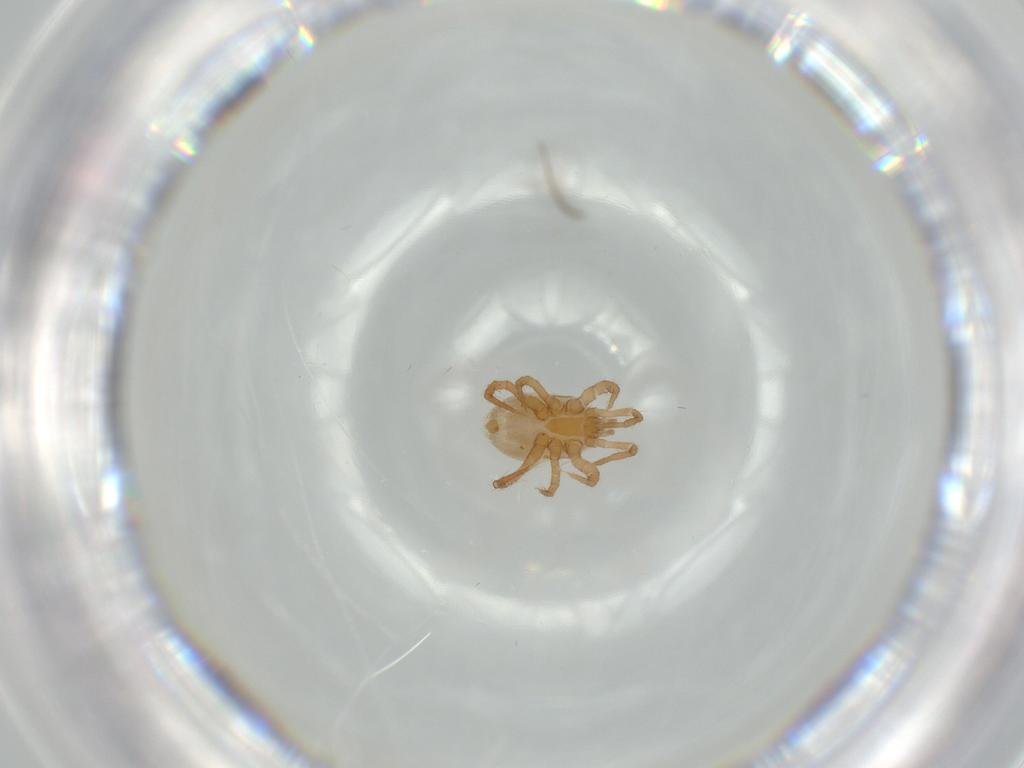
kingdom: Animalia
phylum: Arthropoda
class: Arachnida
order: Mesostigmata
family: Parasitidae
